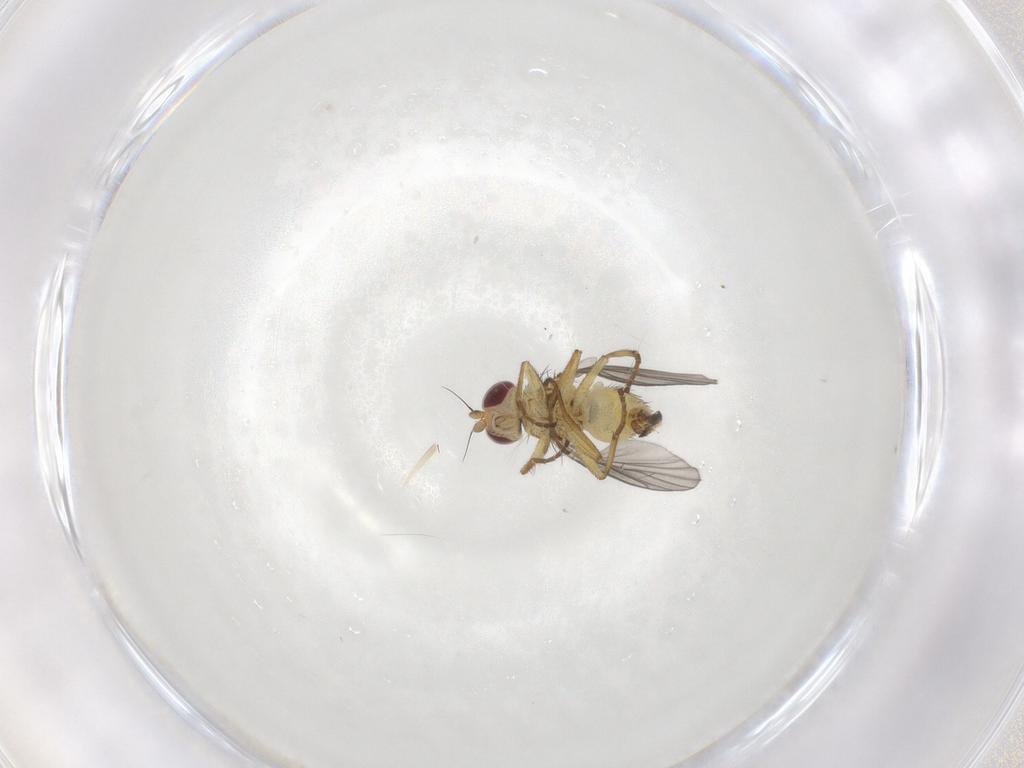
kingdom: Animalia
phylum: Arthropoda
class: Insecta
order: Diptera
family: Agromyzidae
